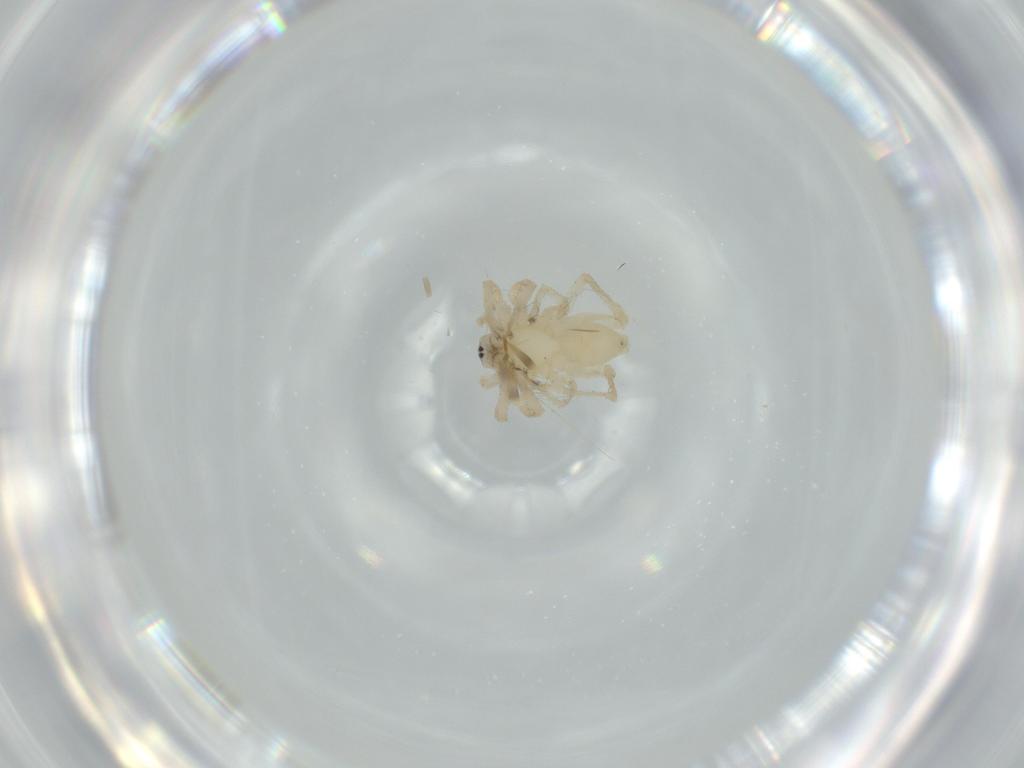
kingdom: Animalia
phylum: Arthropoda
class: Arachnida
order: Araneae
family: Anyphaenidae
